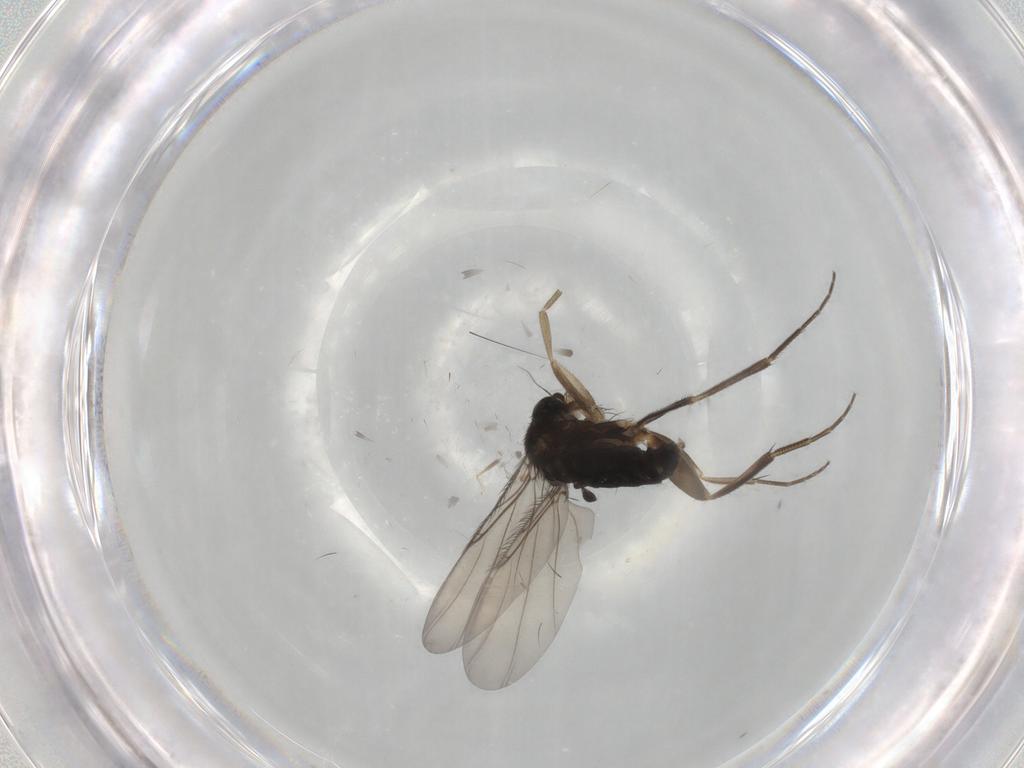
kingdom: Animalia
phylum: Arthropoda
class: Insecta
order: Diptera
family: Phoridae
